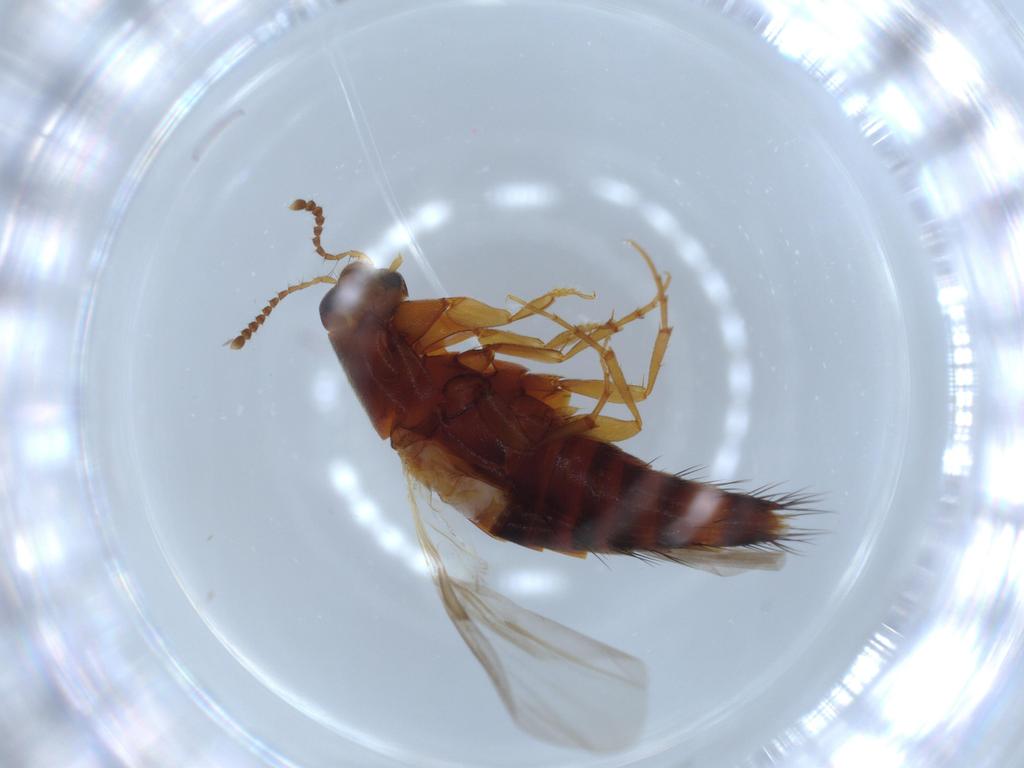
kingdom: Animalia
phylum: Arthropoda
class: Insecta
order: Coleoptera
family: Staphylinidae
